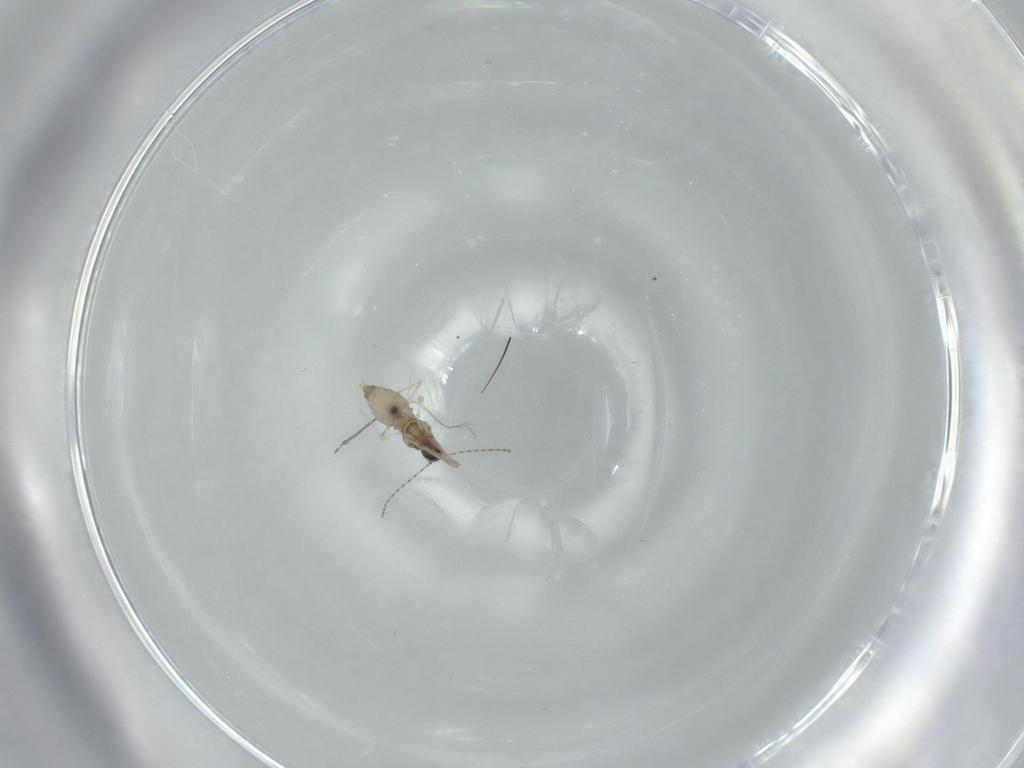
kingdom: Animalia
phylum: Arthropoda
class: Insecta
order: Diptera
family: Cecidomyiidae
